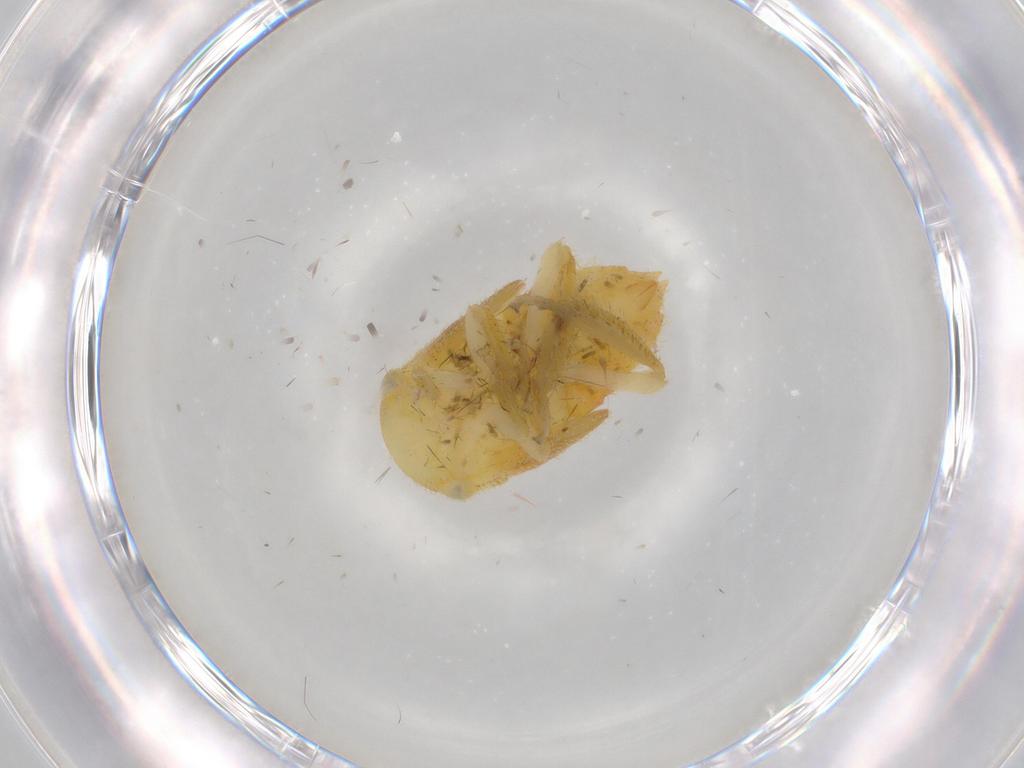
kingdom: Animalia
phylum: Arthropoda
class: Insecta
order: Hemiptera
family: Cicadellidae
